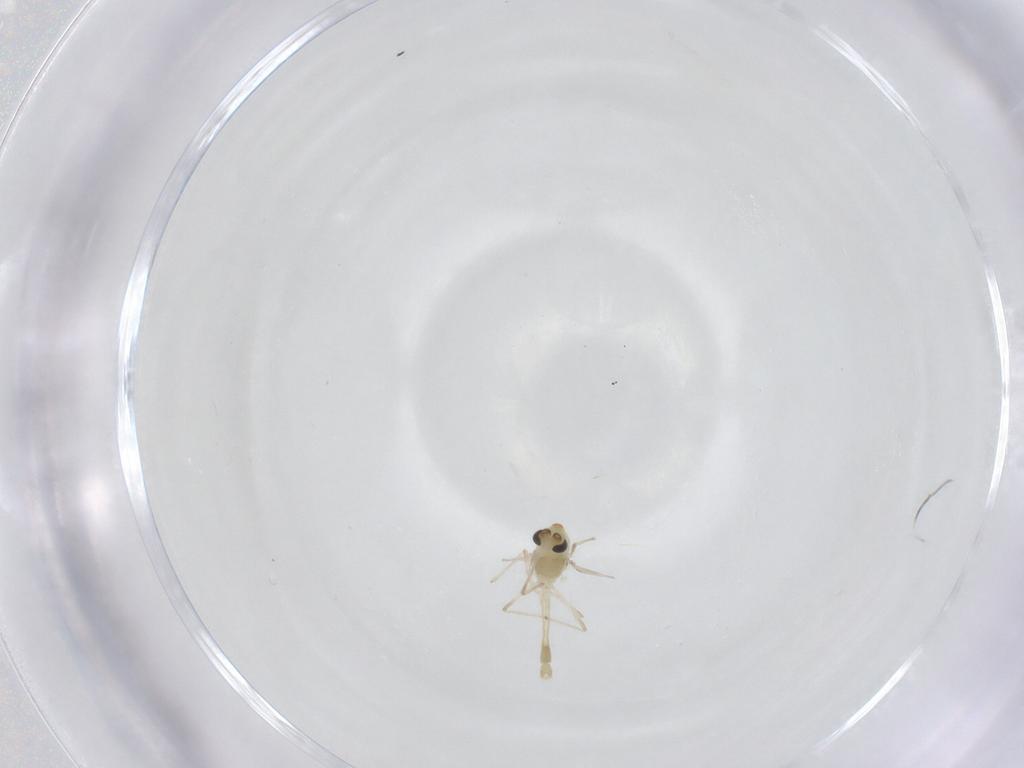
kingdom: Animalia
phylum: Arthropoda
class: Insecta
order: Diptera
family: Chironomidae
